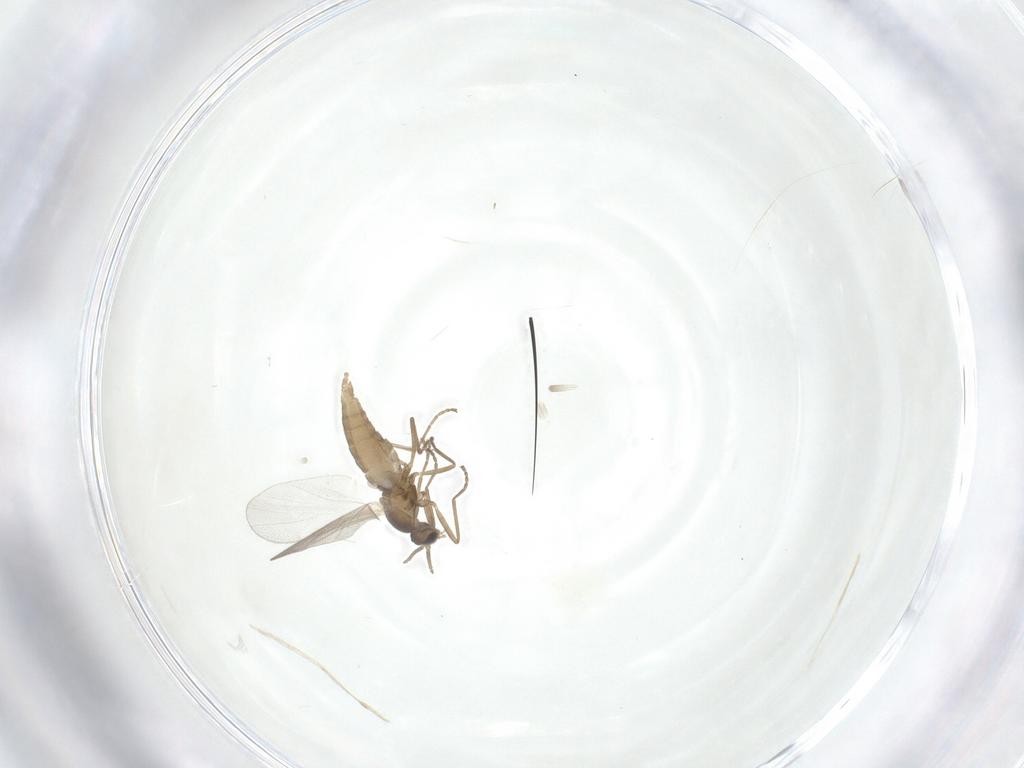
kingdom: Animalia
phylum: Arthropoda
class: Insecta
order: Diptera
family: Cecidomyiidae
